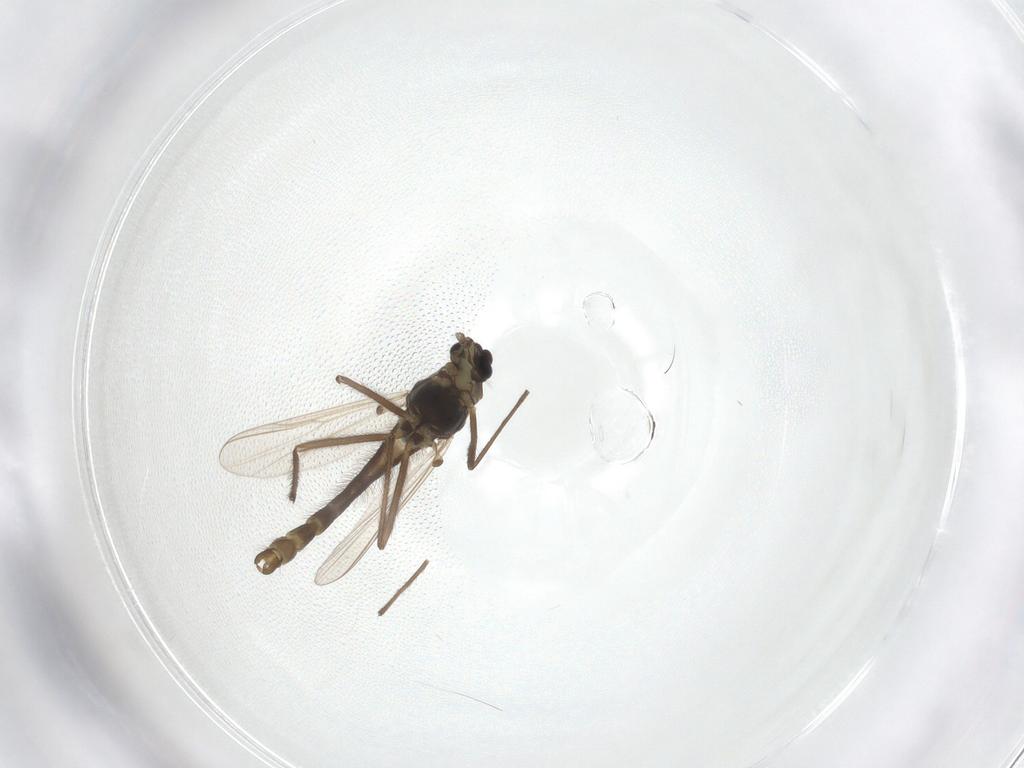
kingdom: Animalia
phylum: Arthropoda
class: Insecta
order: Diptera
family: Chironomidae
